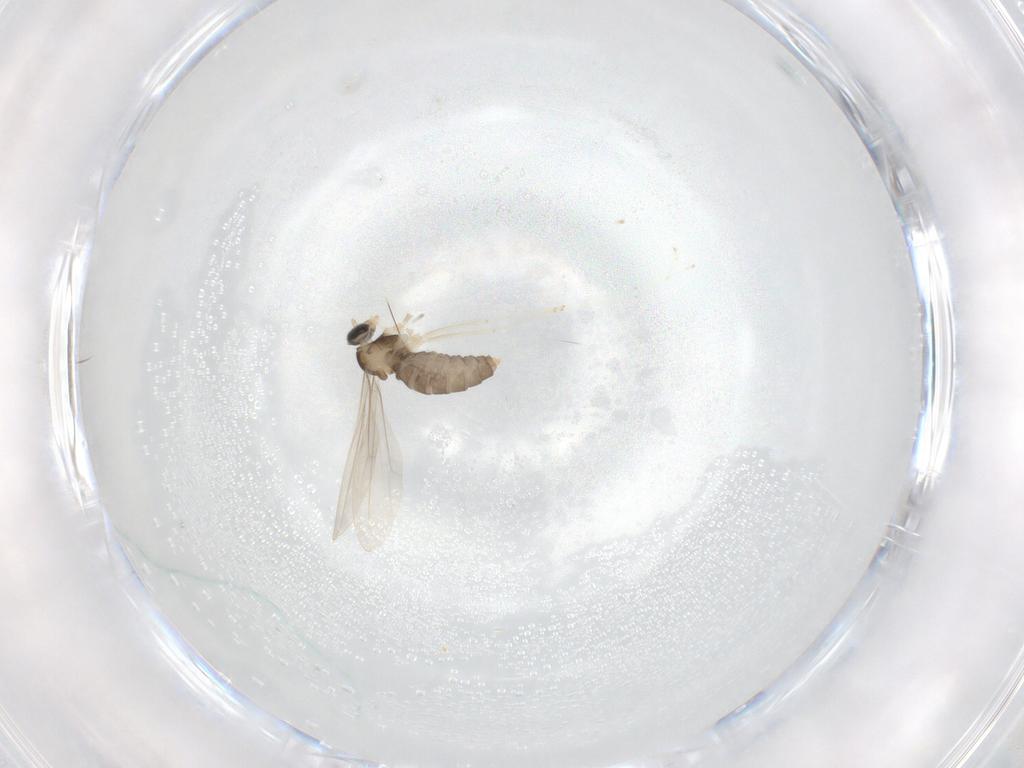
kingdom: Animalia
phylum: Arthropoda
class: Insecta
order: Diptera
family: Cecidomyiidae
